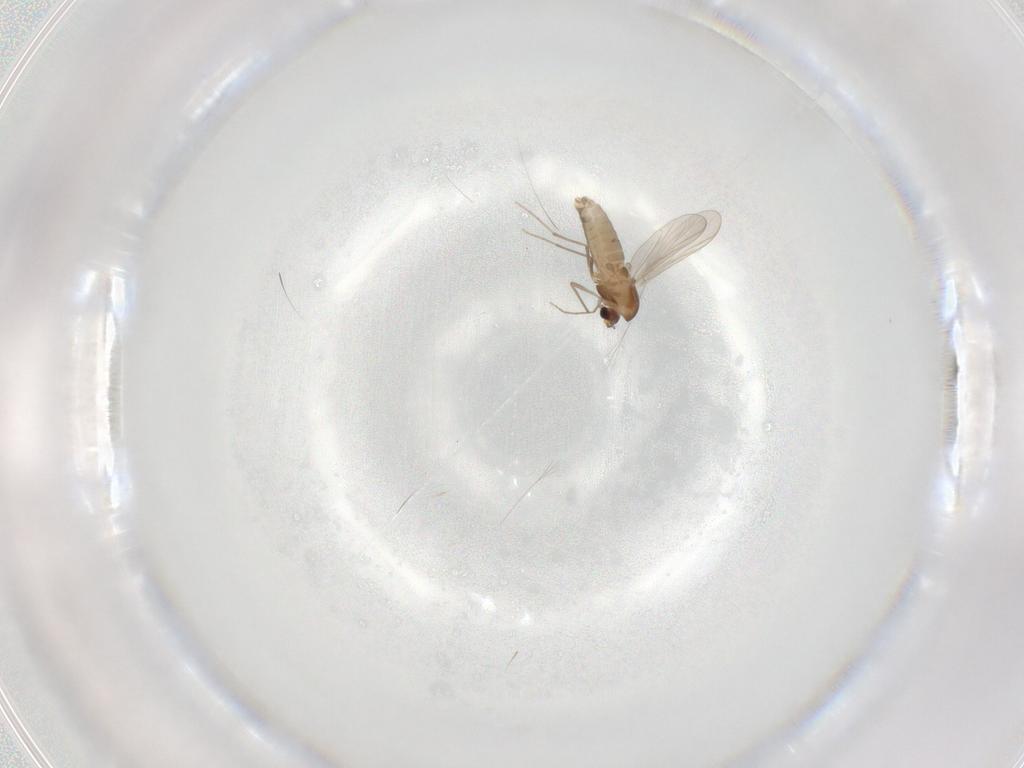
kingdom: Animalia
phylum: Arthropoda
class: Insecta
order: Diptera
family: Chironomidae
